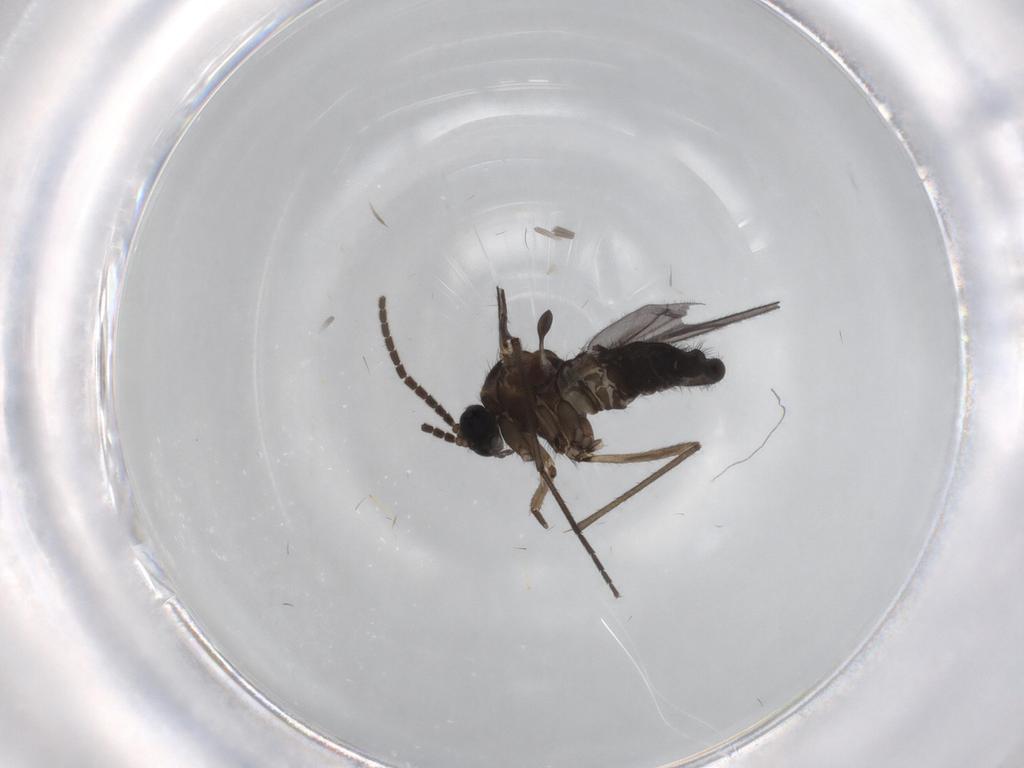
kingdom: Animalia
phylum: Arthropoda
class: Insecta
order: Diptera
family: Sciaridae
